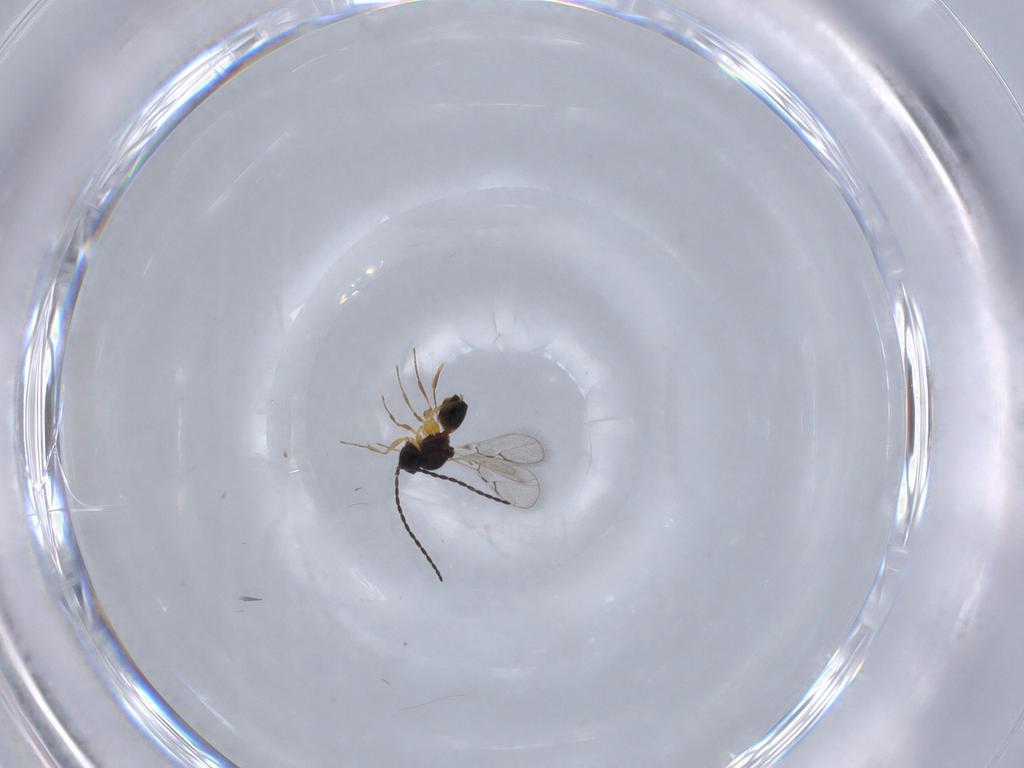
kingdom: Animalia
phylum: Arthropoda
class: Insecta
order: Hymenoptera
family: Figitidae
